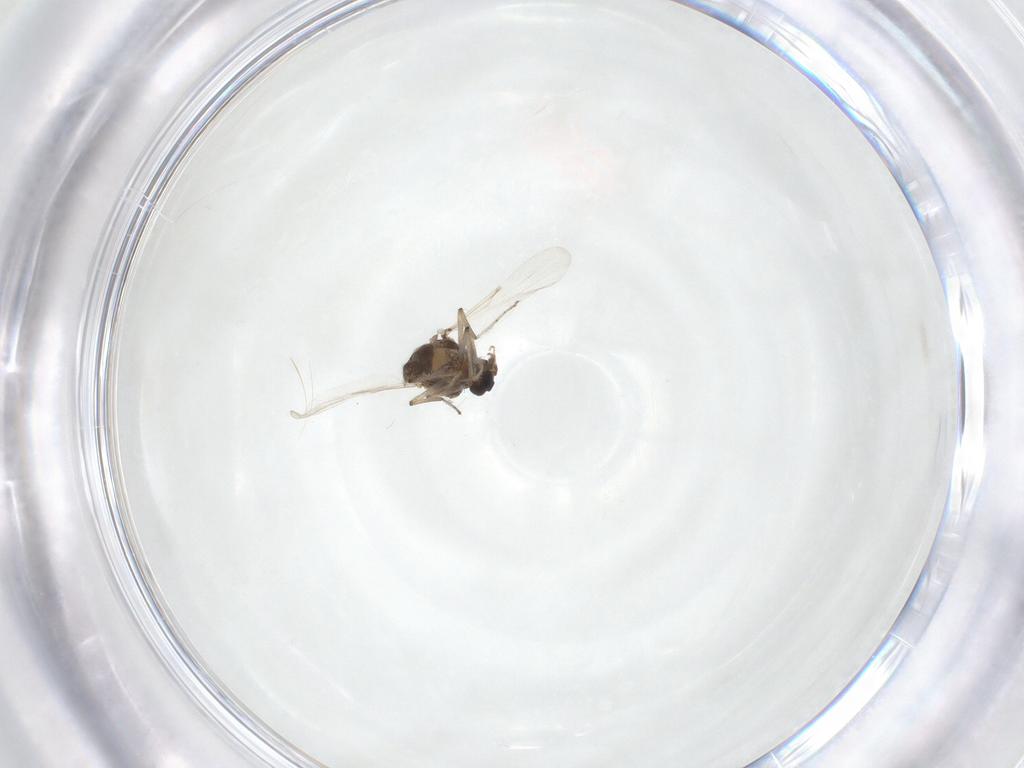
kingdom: Animalia
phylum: Arthropoda
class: Insecta
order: Diptera
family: Ceratopogonidae
